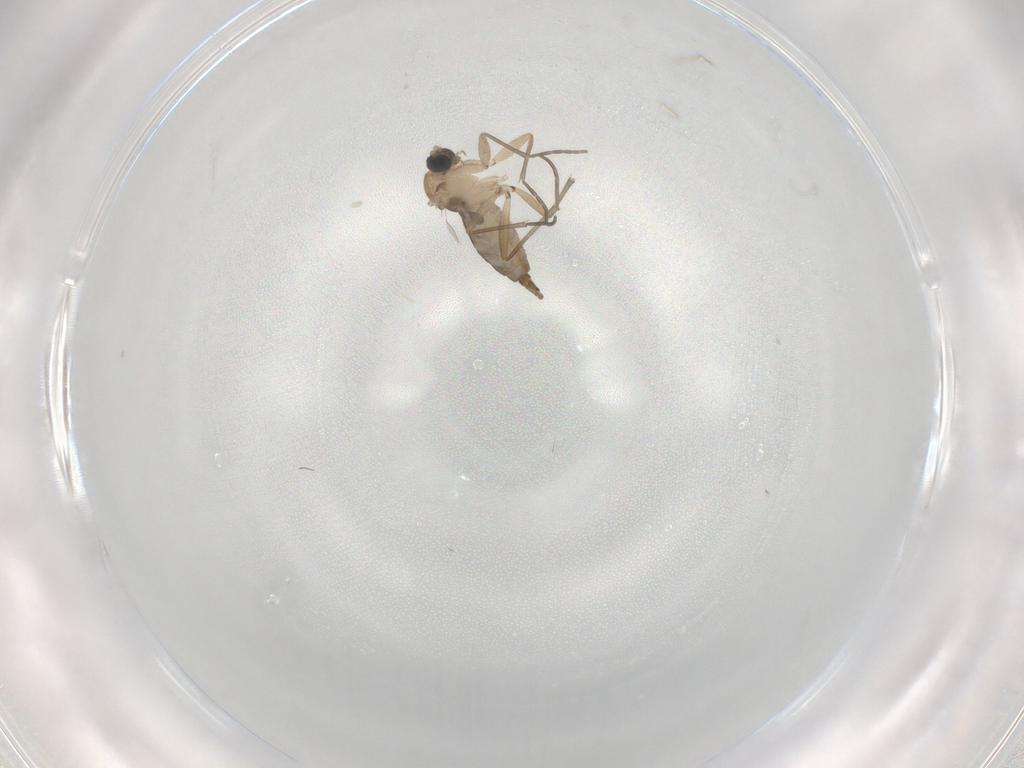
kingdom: Animalia
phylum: Arthropoda
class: Insecta
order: Diptera
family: Sciaridae
